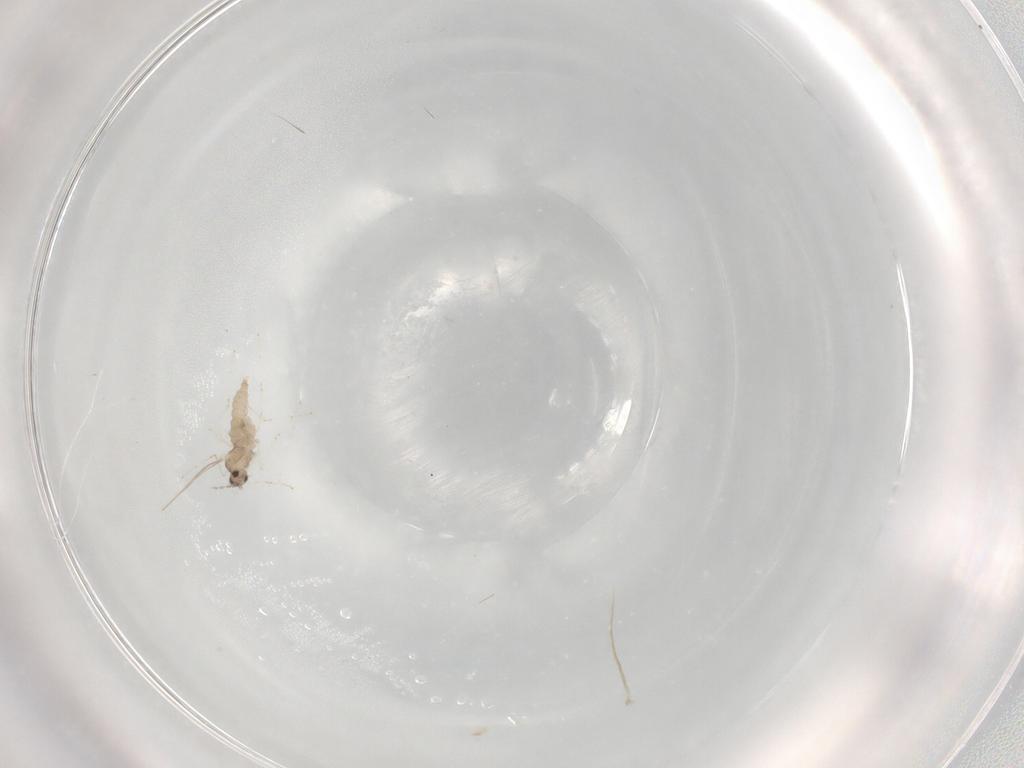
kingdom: Animalia
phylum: Arthropoda
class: Insecta
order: Diptera
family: Cecidomyiidae
